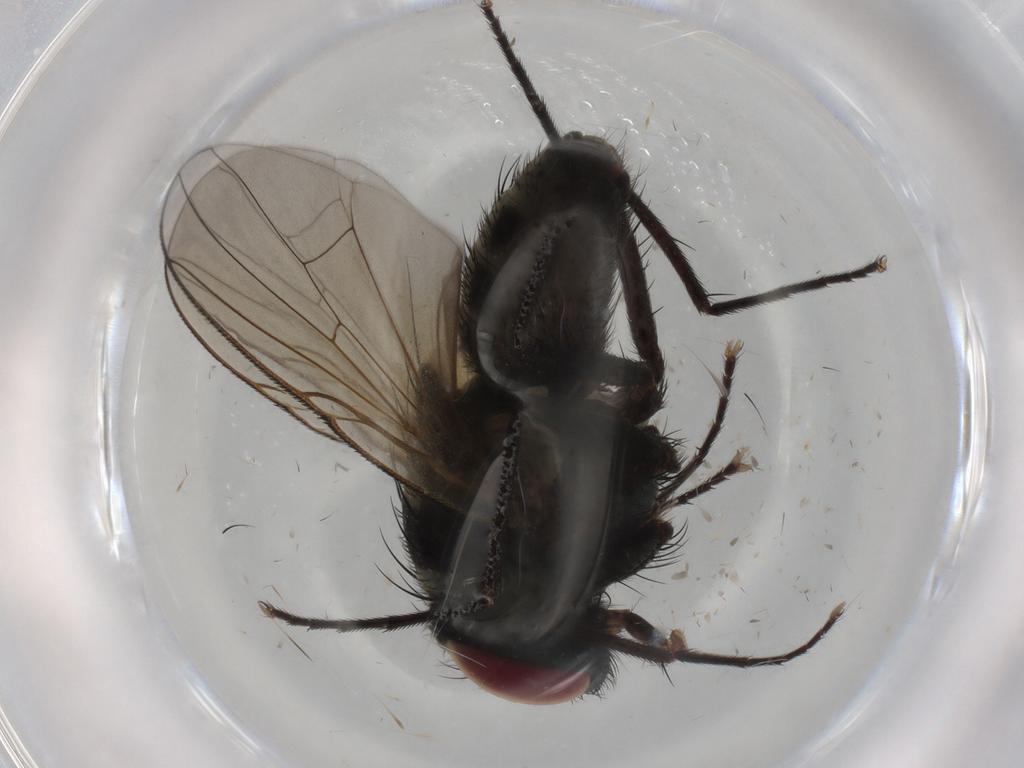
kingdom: Animalia
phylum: Arthropoda
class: Insecta
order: Diptera
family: Muscidae
